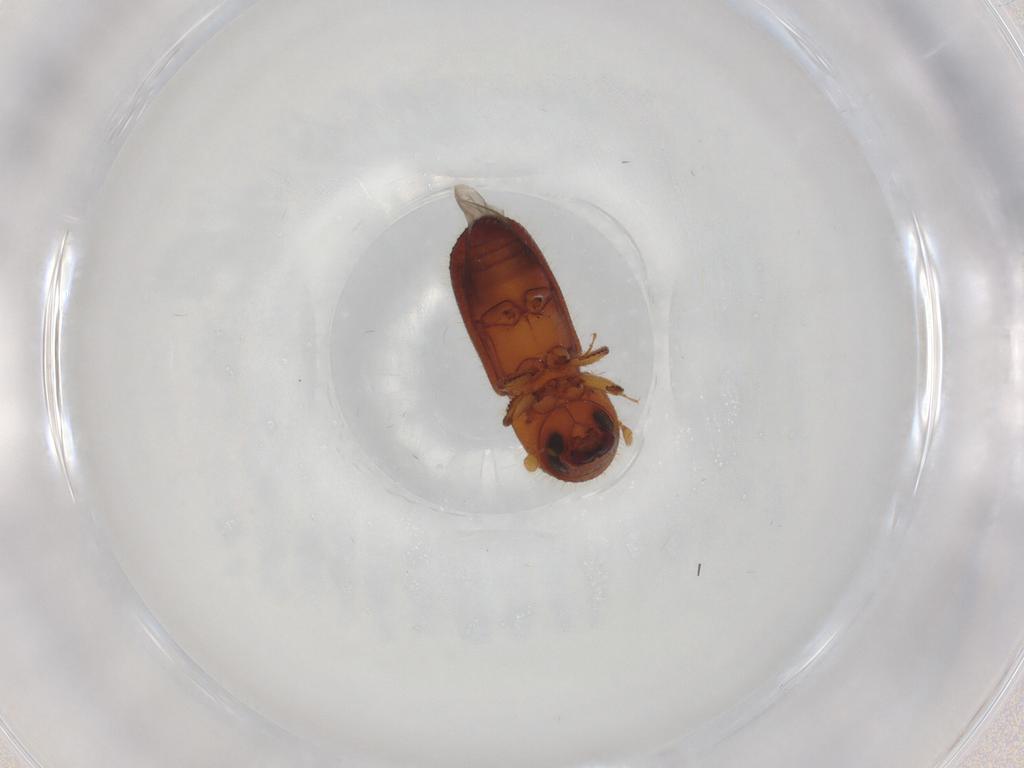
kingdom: Animalia
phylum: Arthropoda
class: Insecta
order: Coleoptera
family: Curculionidae
